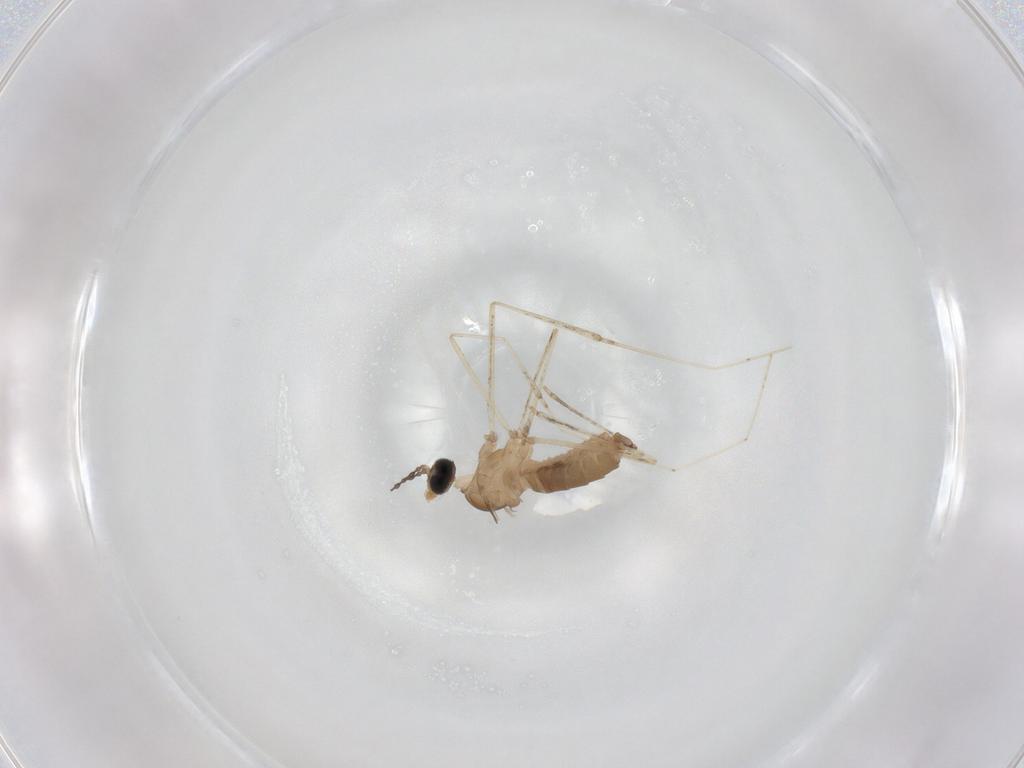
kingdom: Animalia
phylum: Arthropoda
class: Insecta
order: Diptera
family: Cecidomyiidae
